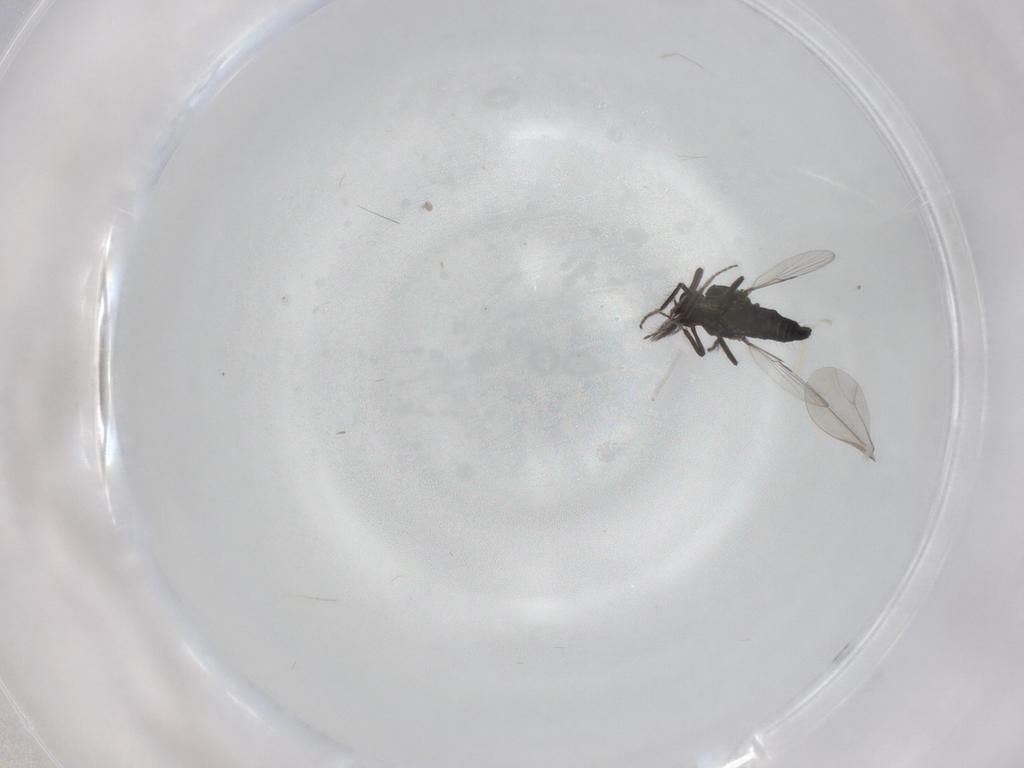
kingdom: Animalia
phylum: Arthropoda
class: Insecta
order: Diptera
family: Ceratopogonidae
